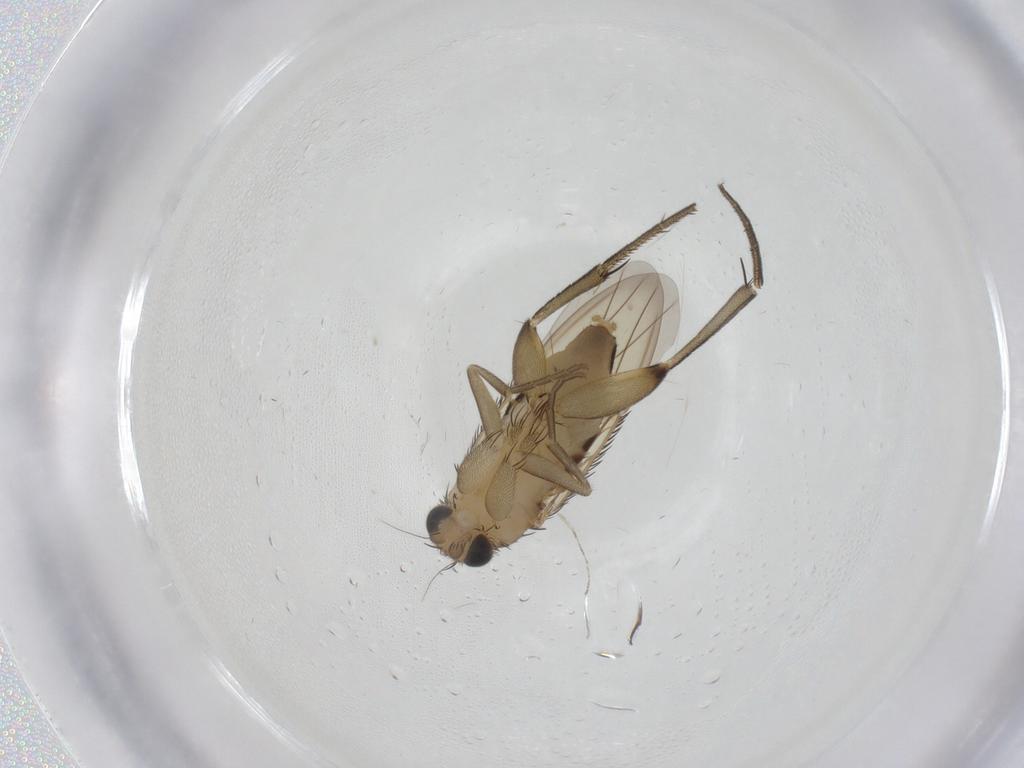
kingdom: Animalia
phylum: Arthropoda
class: Insecta
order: Diptera
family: Phoridae
